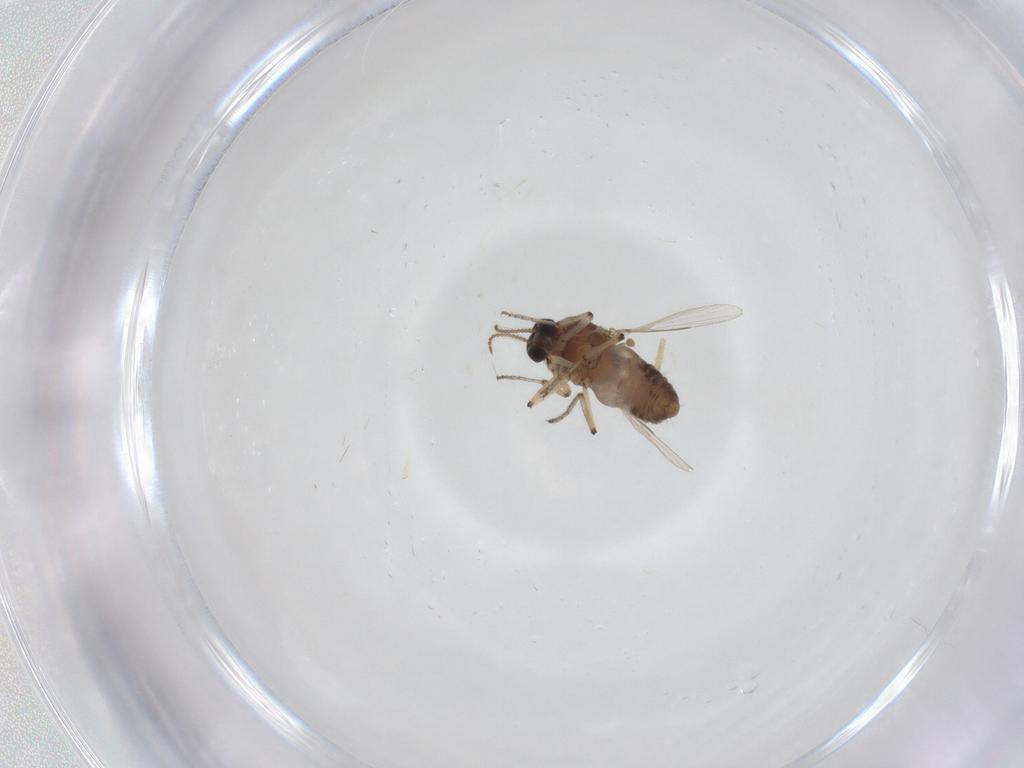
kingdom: Animalia
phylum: Arthropoda
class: Insecta
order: Diptera
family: Ceratopogonidae
